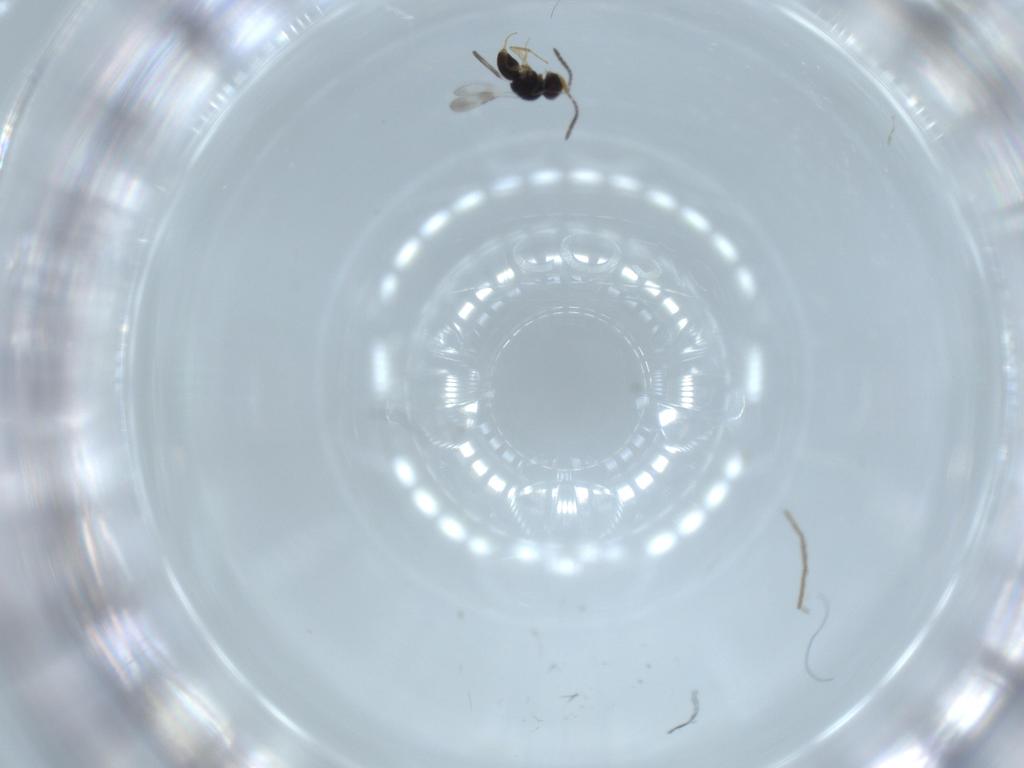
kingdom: Animalia
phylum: Arthropoda
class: Insecta
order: Hymenoptera
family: Ceraphronidae
